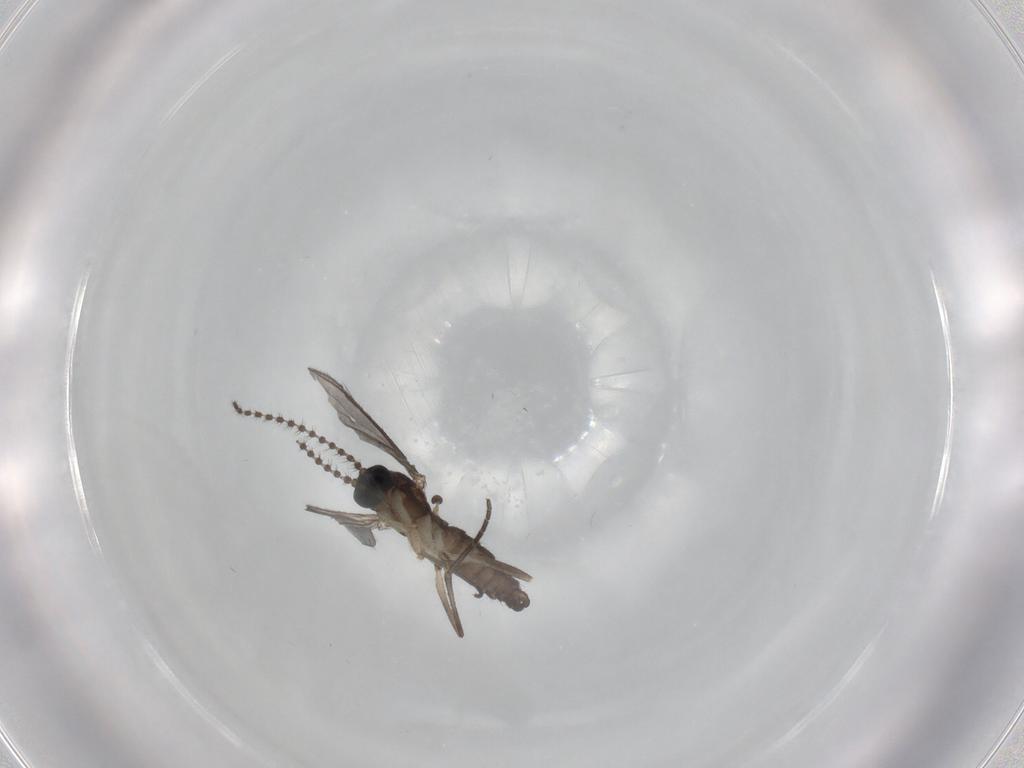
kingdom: Animalia
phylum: Arthropoda
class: Insecta
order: Diptera
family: Sciaridae
